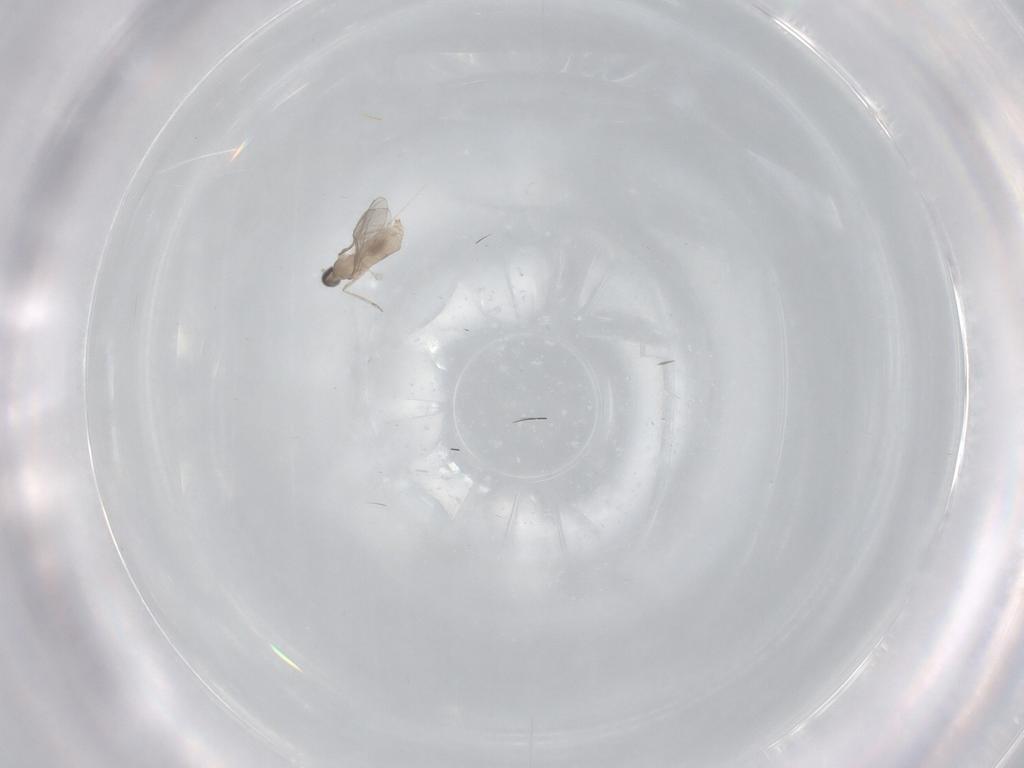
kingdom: Animalia
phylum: Arthropoda
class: Insecta
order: Diptera
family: Cecidomyiidae
